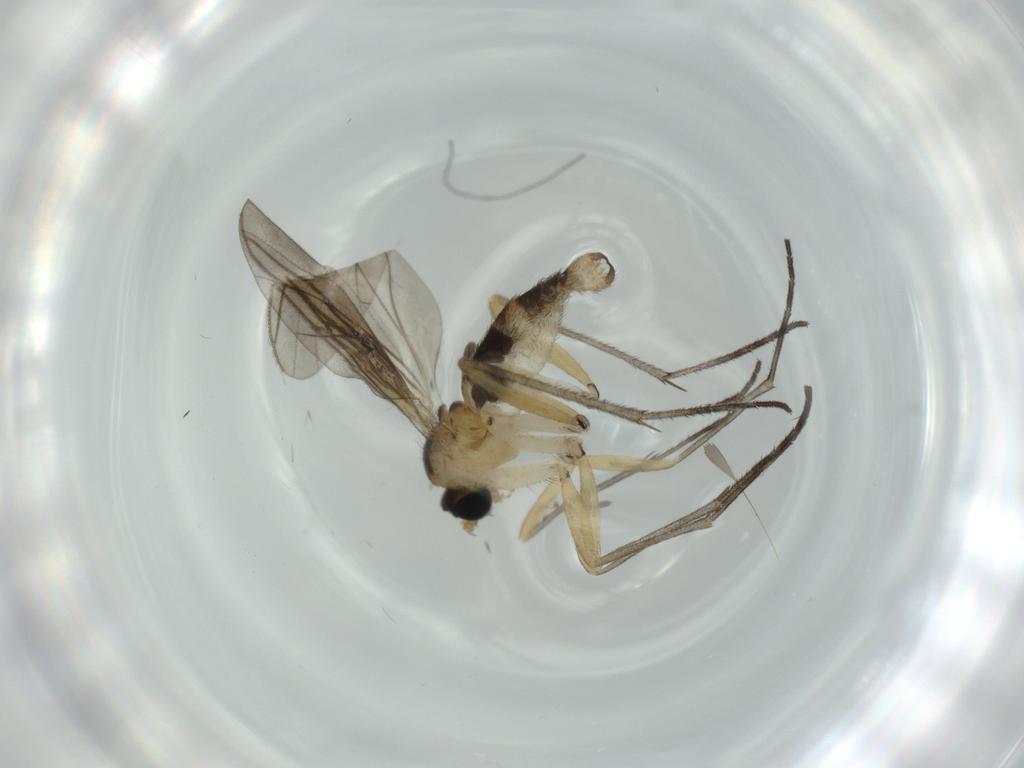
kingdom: Animalia
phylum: Arthropoda
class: Insecta
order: Diptera
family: Sciaridae
